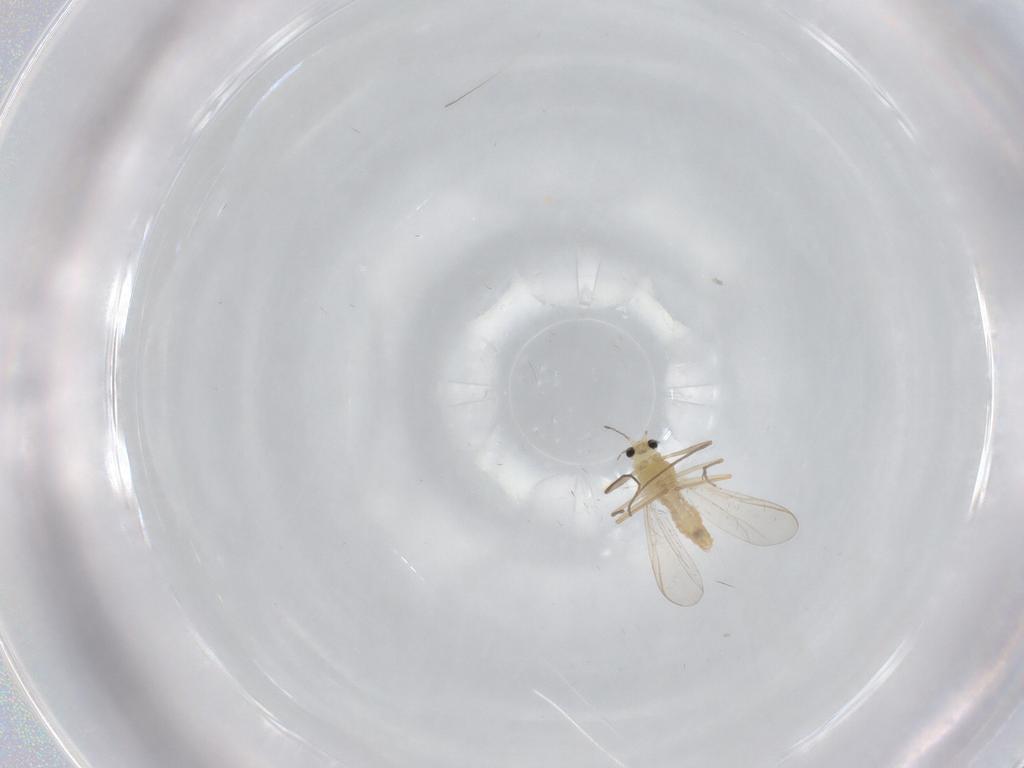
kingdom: Animalia
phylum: Arthropoda
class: Insecta
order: Diptera
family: Chironomidae
